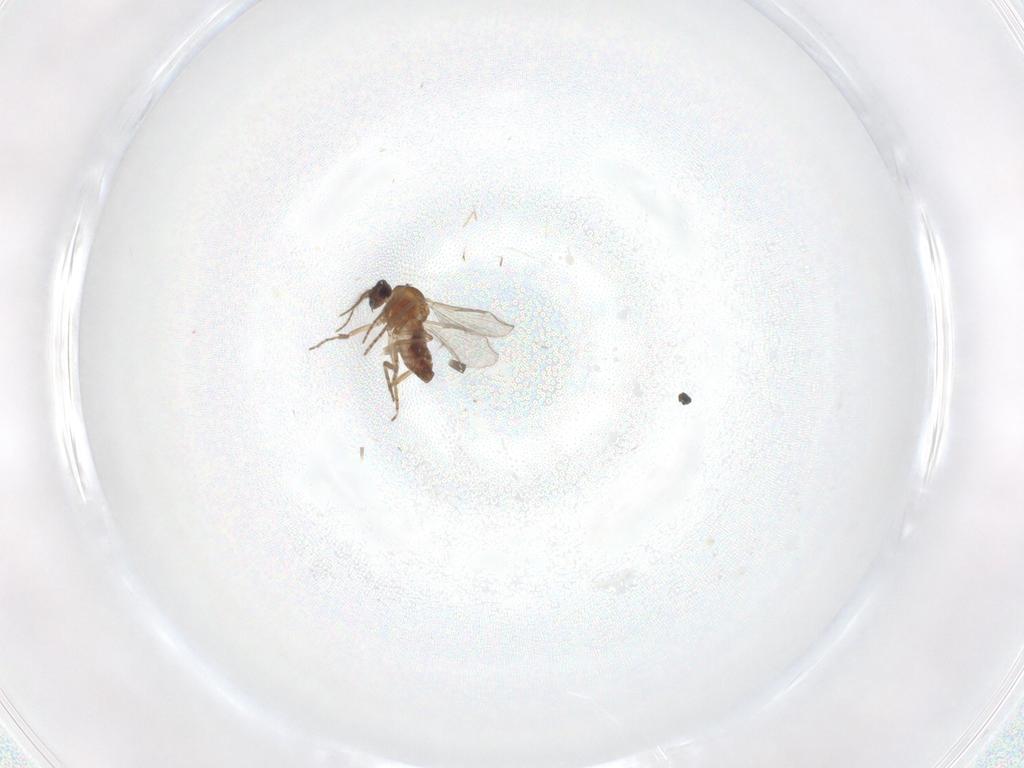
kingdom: Animalia
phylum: Arthropoda
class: Insecta
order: Diptera
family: Chironomidae
